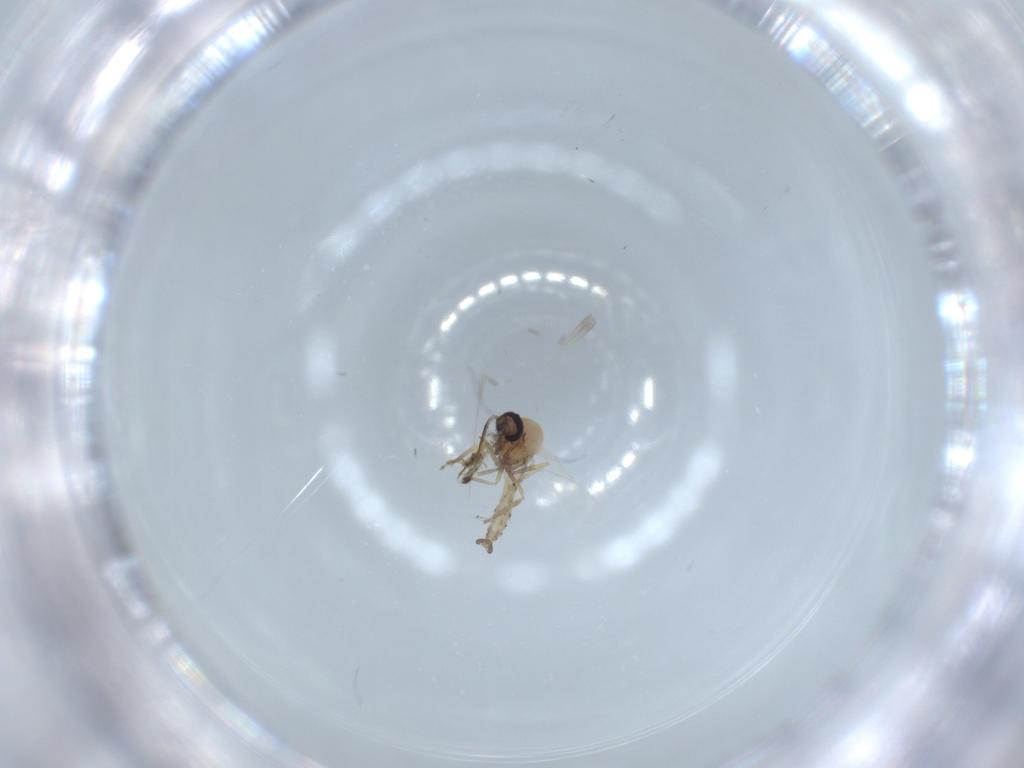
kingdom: Animalia
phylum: Arthropoda
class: Insecta
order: Diptera
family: Ceratopogonidae
